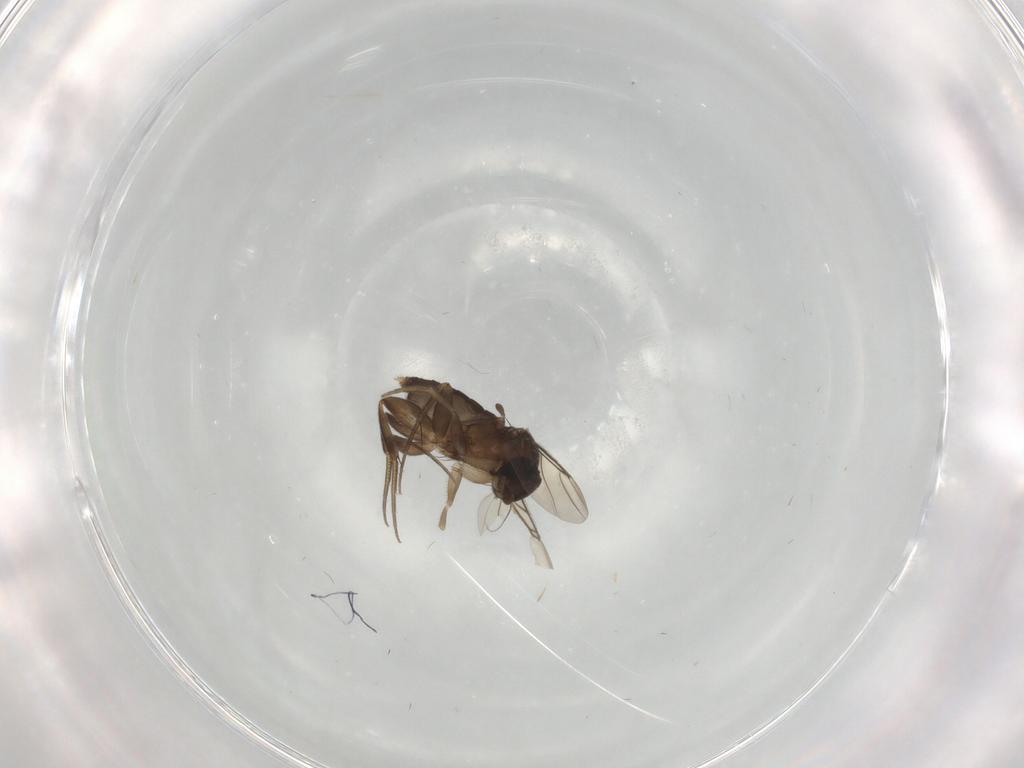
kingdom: Animalia
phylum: Arthropoda
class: Insecta
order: Diptera
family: Phoridae
